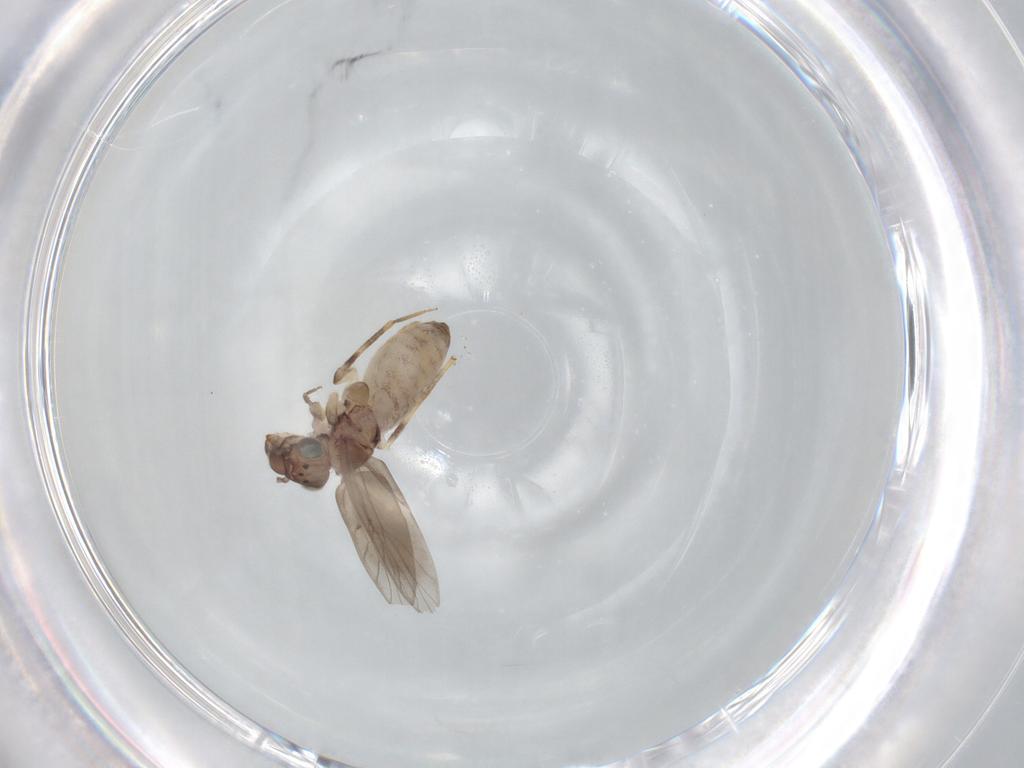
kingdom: Animalia
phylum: Arthropoda
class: Insecta
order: Psocodea
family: Lepidopsocidae
